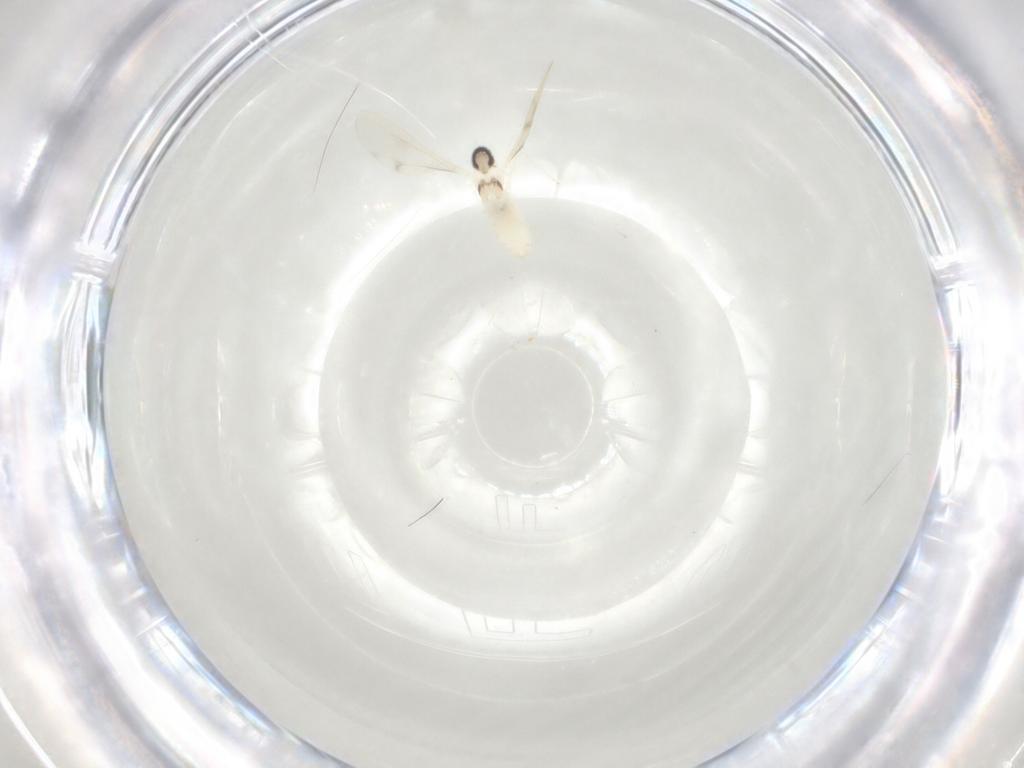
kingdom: Animalia
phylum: Arthropoda
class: Insecta
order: Diptera
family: Cecidomyiidae
